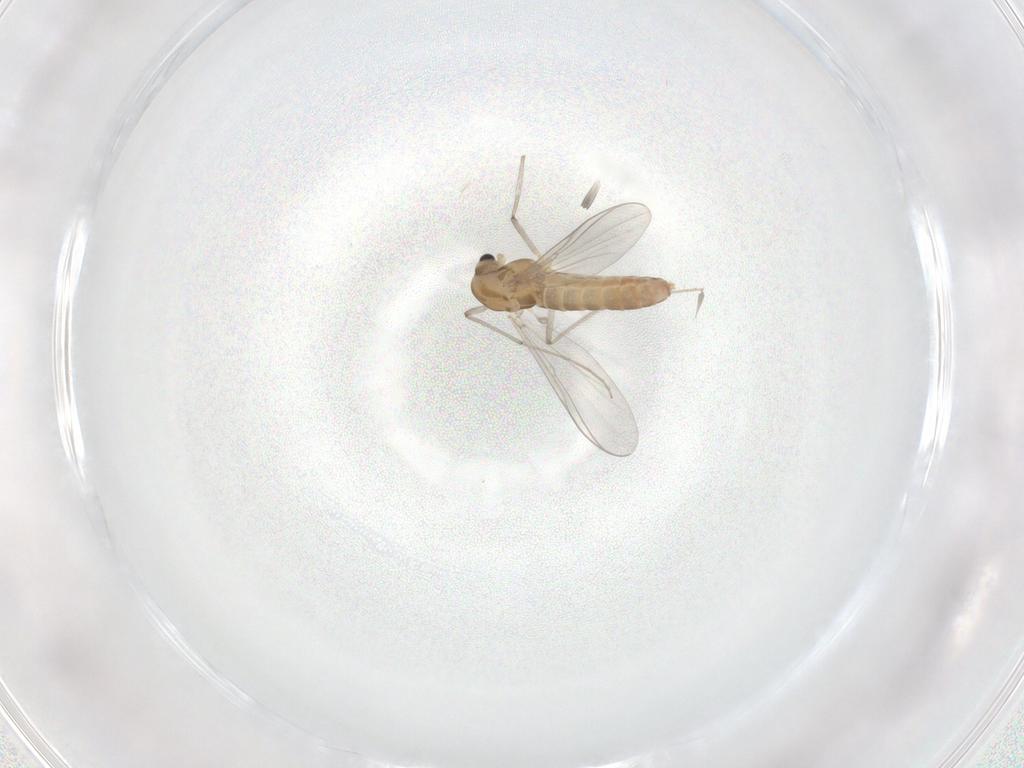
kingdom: Animalia
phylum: Arthropoda
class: Insecta
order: Diptera
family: Chironomidae
